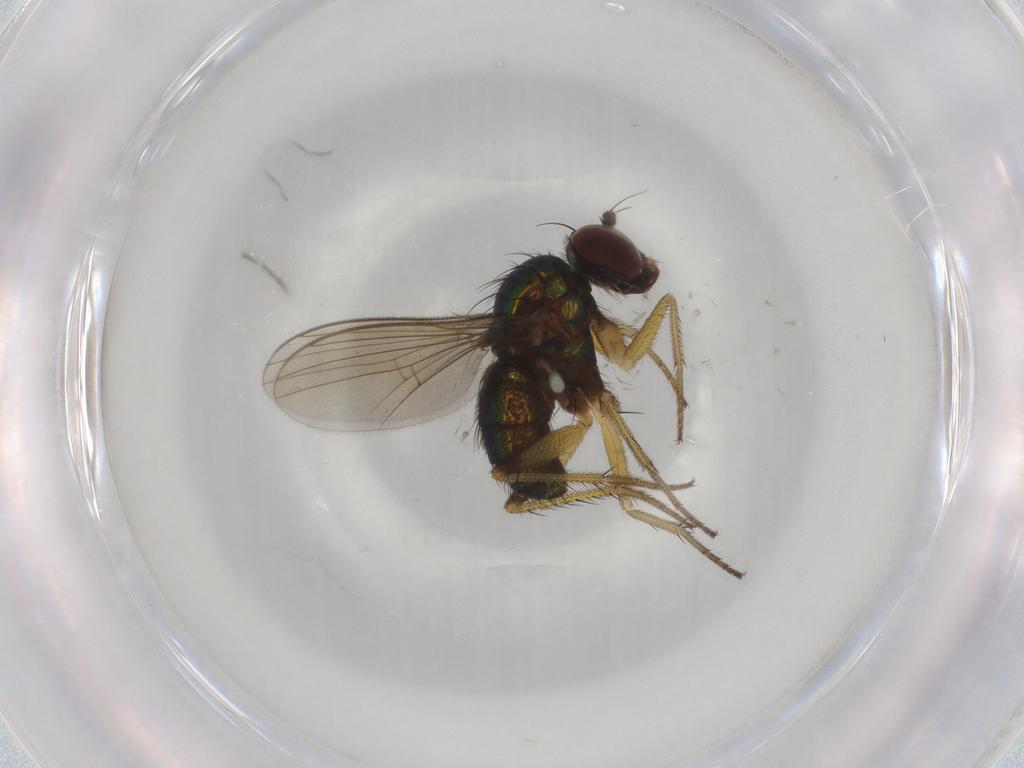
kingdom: Animalia
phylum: Arthropoda
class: Insecta
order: Diptera
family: Dolichopodidae
